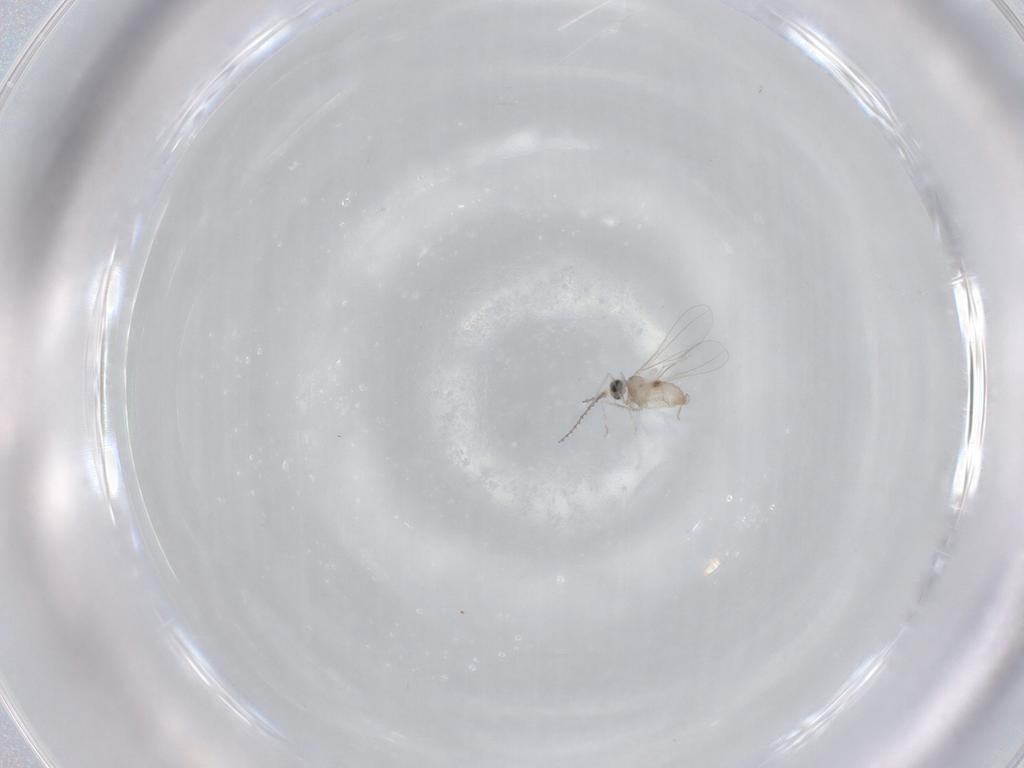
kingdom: Animalia
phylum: Arthropoda
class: Insecta
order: Diptera
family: Cecidomyiidae
